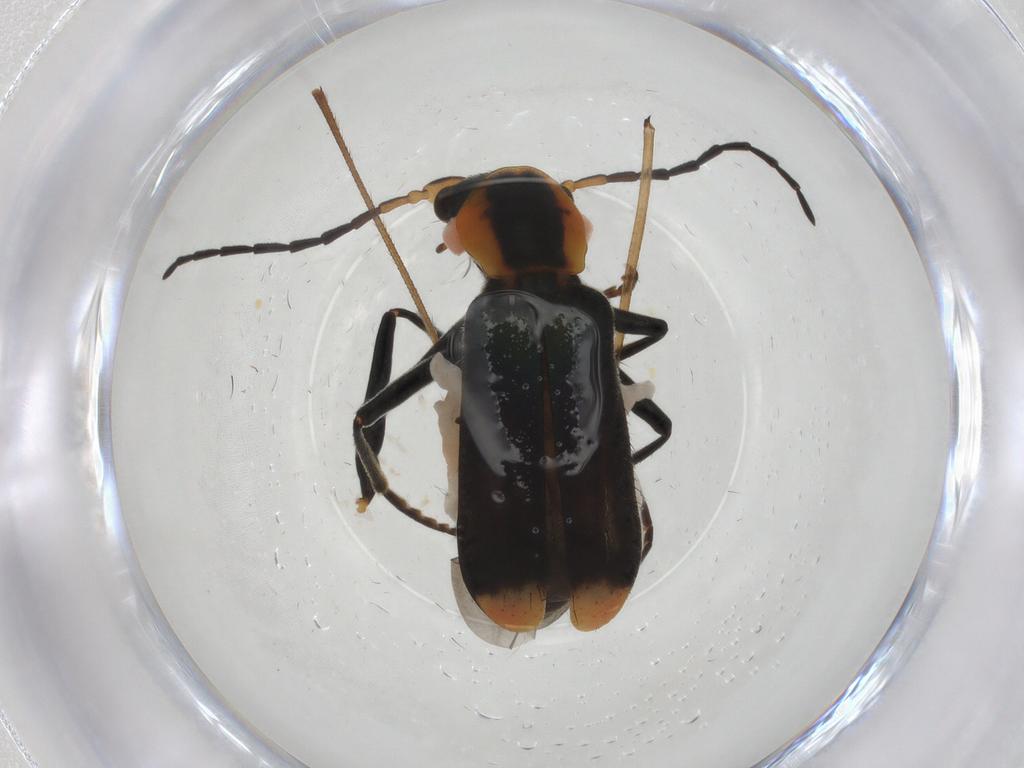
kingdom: Animalia
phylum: Arthropoda
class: Insecta
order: Coleoptera
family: Melyridae
